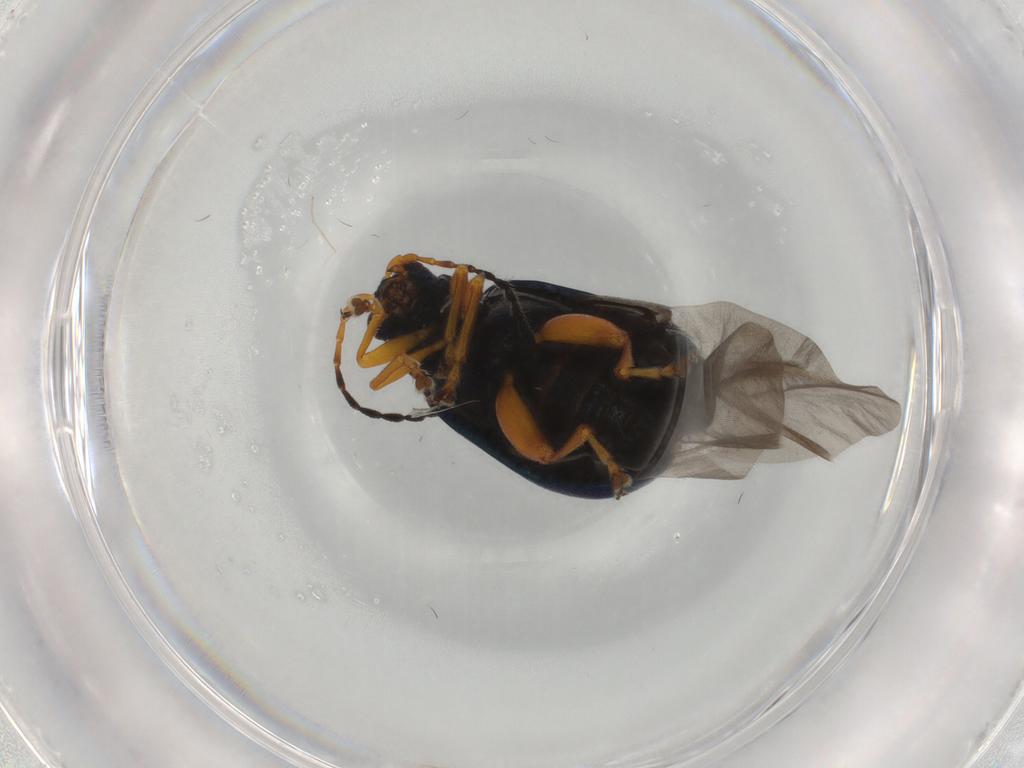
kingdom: Animalia
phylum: Arthropoda
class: Insecta
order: Coleoptera
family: Chrysomelidae
